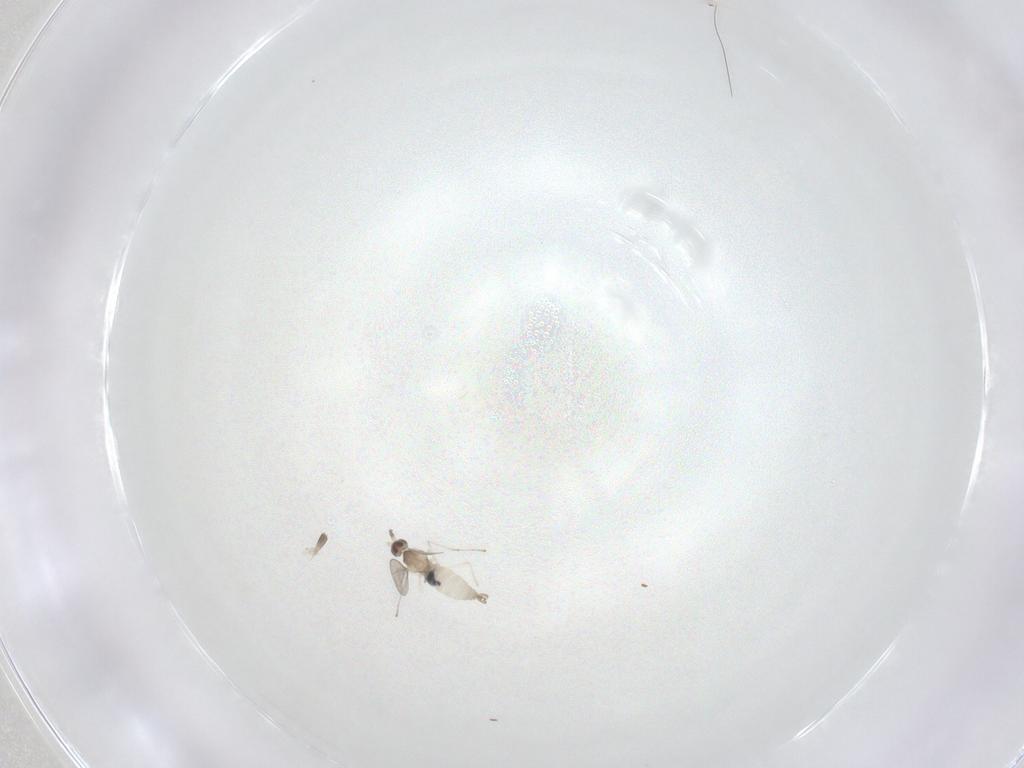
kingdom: Animalia
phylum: Arthropoda
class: Insecta
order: Diptera
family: Cecidomyiidae
